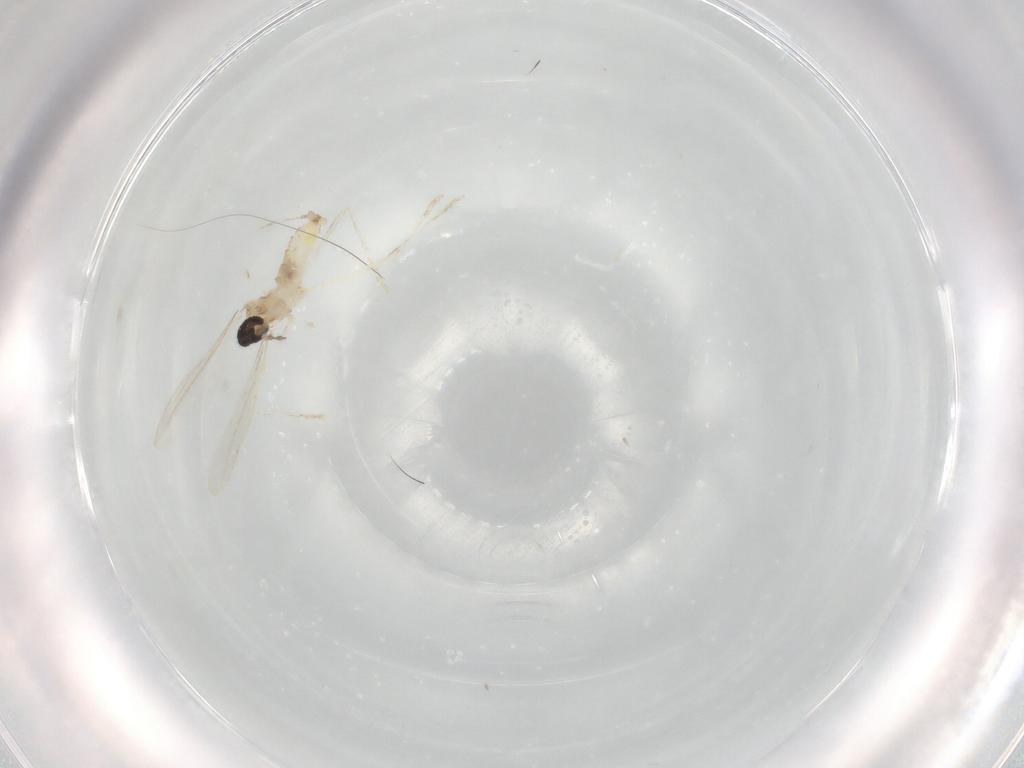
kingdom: Animalia
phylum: Arthropoda
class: Insecta
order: Diptera
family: Cecidomyiidae
